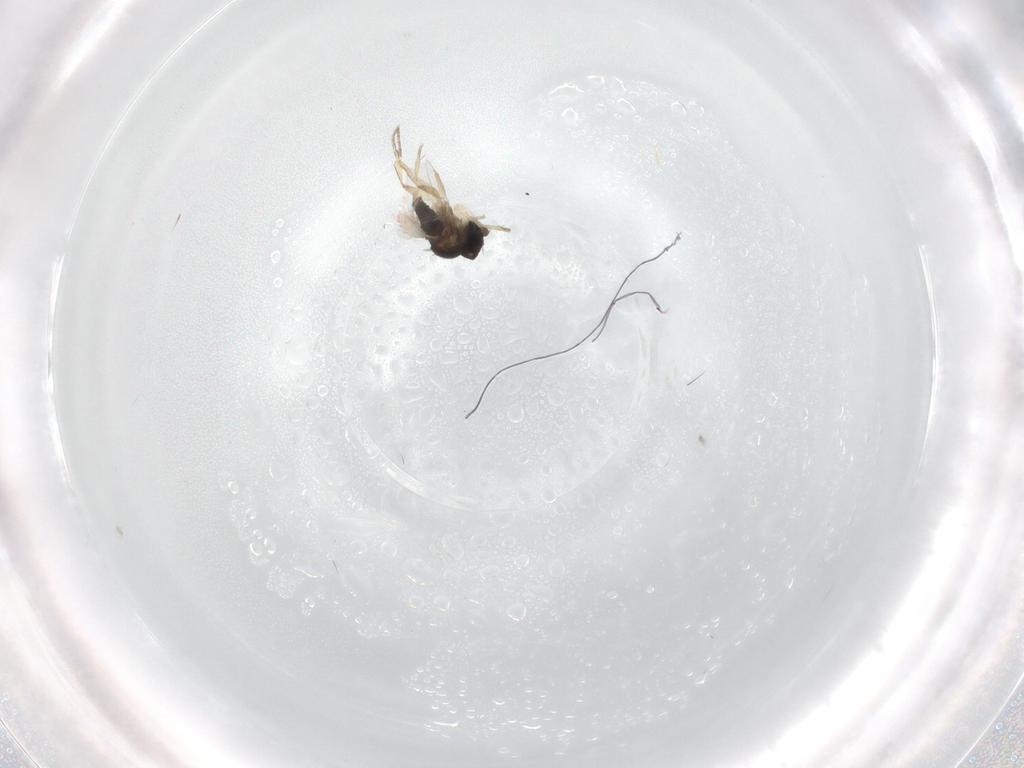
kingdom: Animalia
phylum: Arthropoda
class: Insecta
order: Diptera
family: Phoridae
